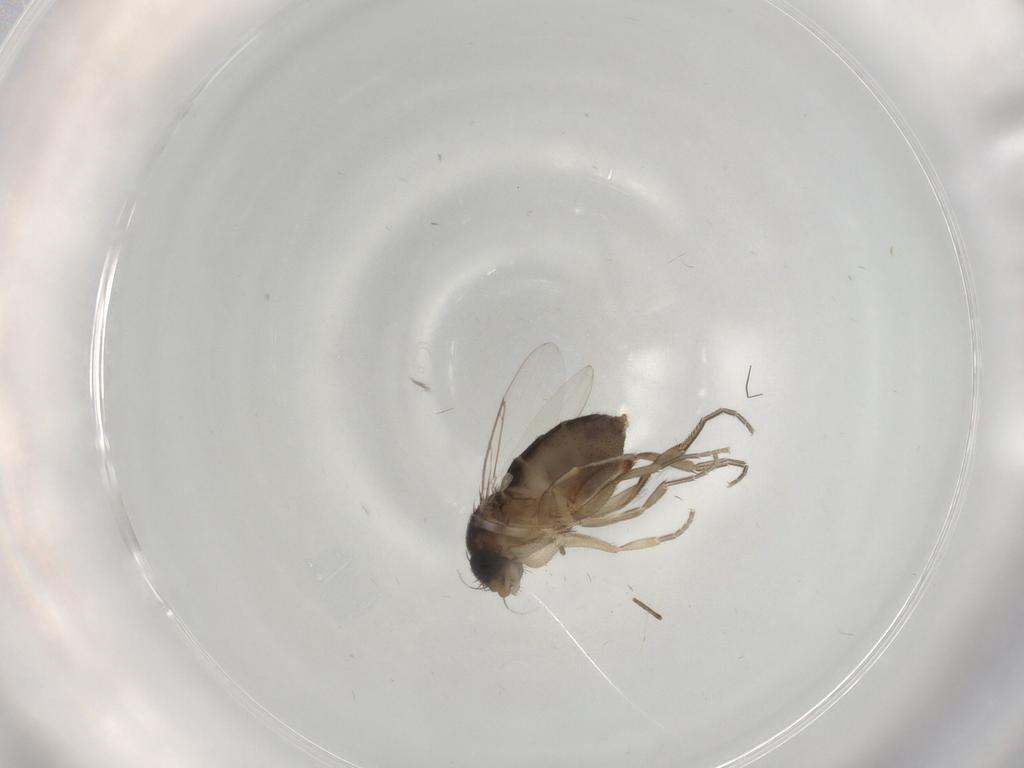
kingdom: Animalia
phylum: Arthropoda
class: Insecta
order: Diptera
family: Phoridae
